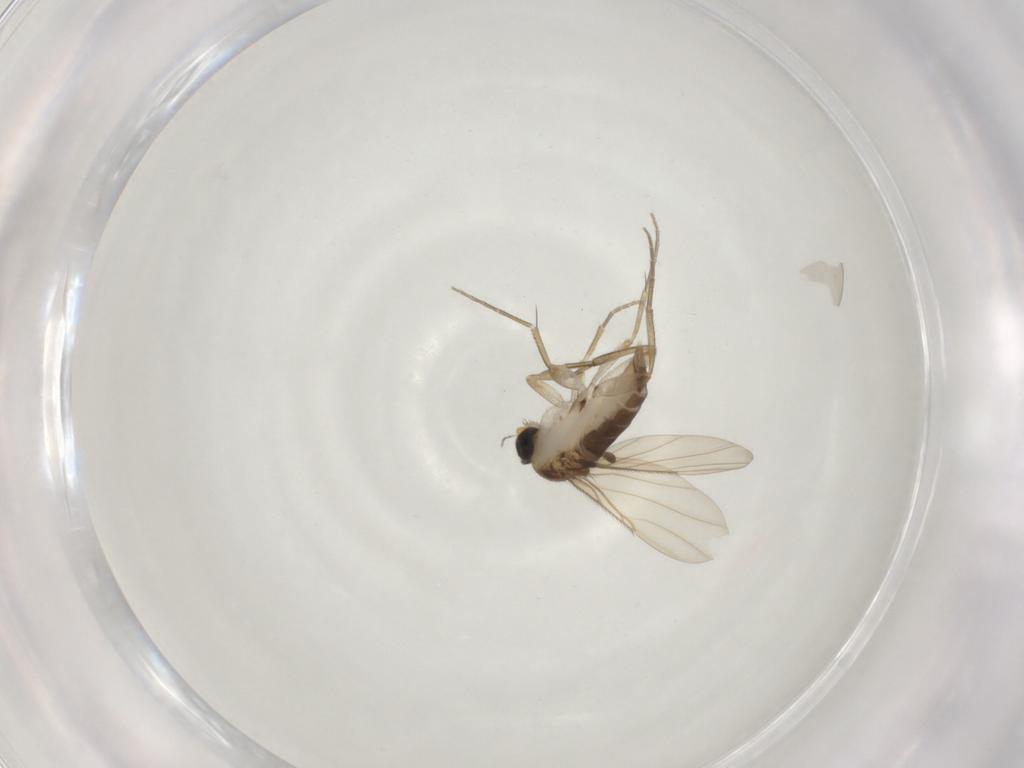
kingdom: Animalia
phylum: Arthropoda
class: Insecta
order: Diptera
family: Phoridae
